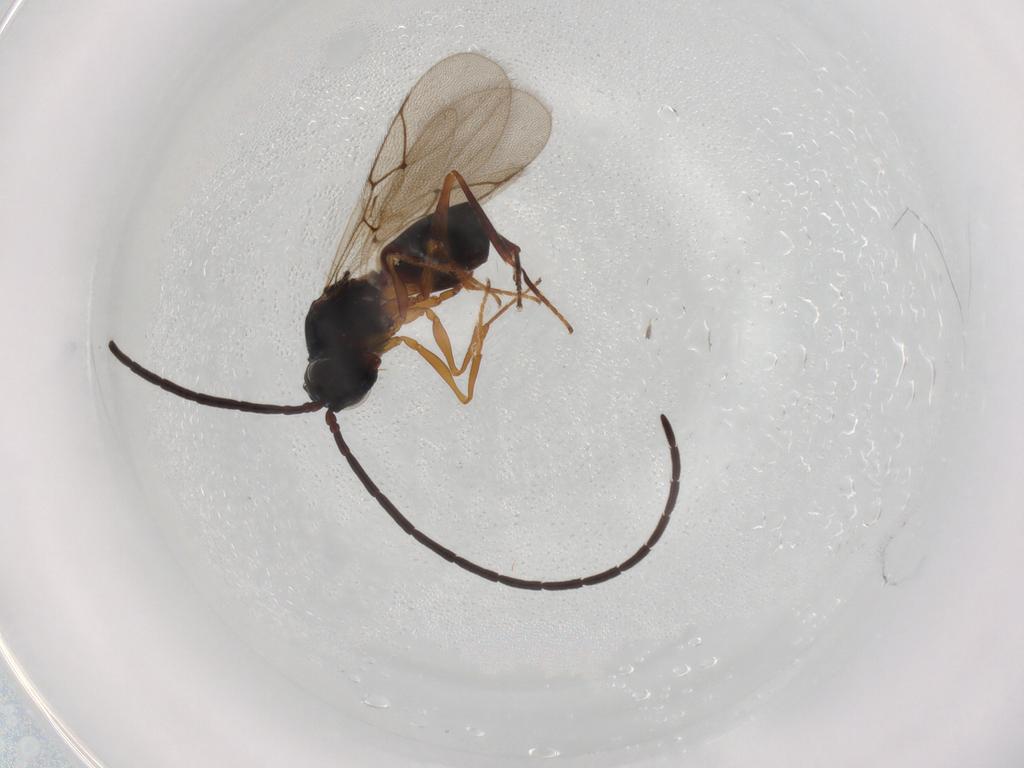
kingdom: Animalia
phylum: Arthropoda
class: Insecta
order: Hymenoptera
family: Figitidae
